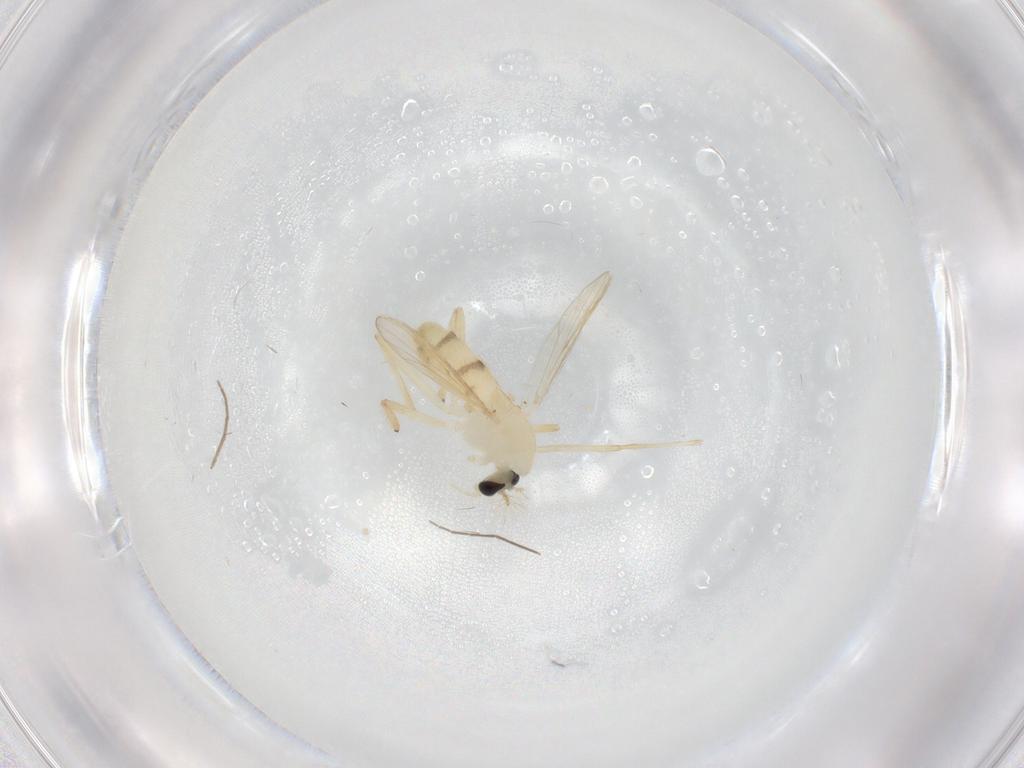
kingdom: Animalia
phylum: Arthropoda
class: Insecta
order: Diptera
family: Chironomidae
